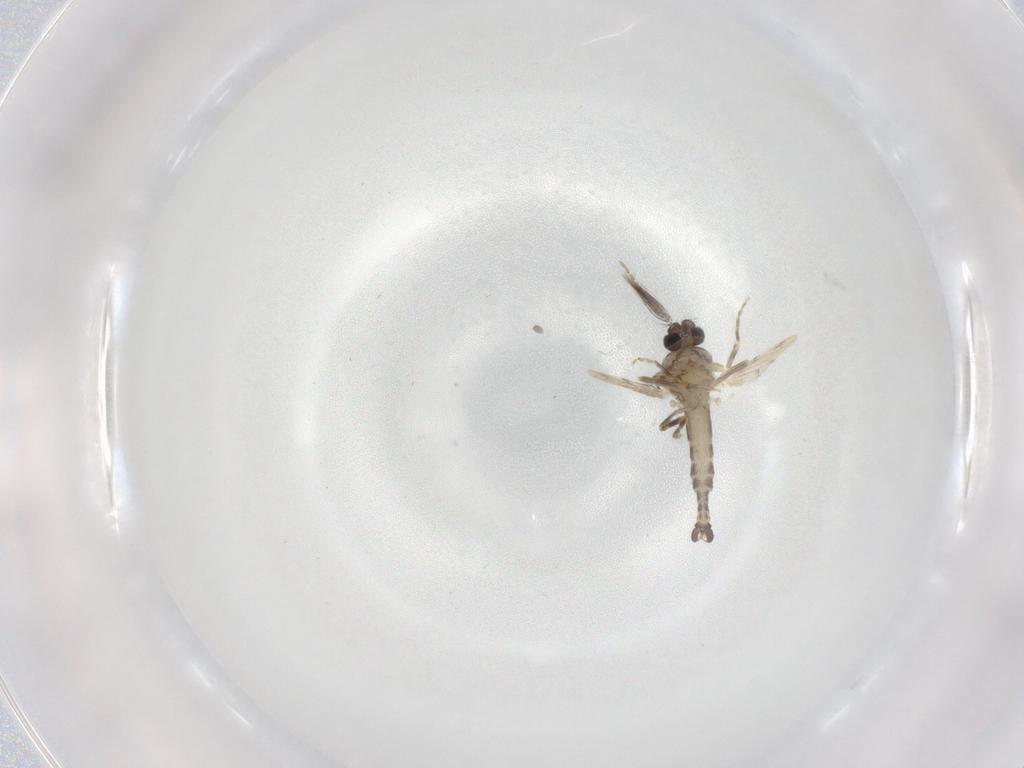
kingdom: Animalia
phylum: Arthropoda
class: Insecta
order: Diptera
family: Ceratopogonidae
